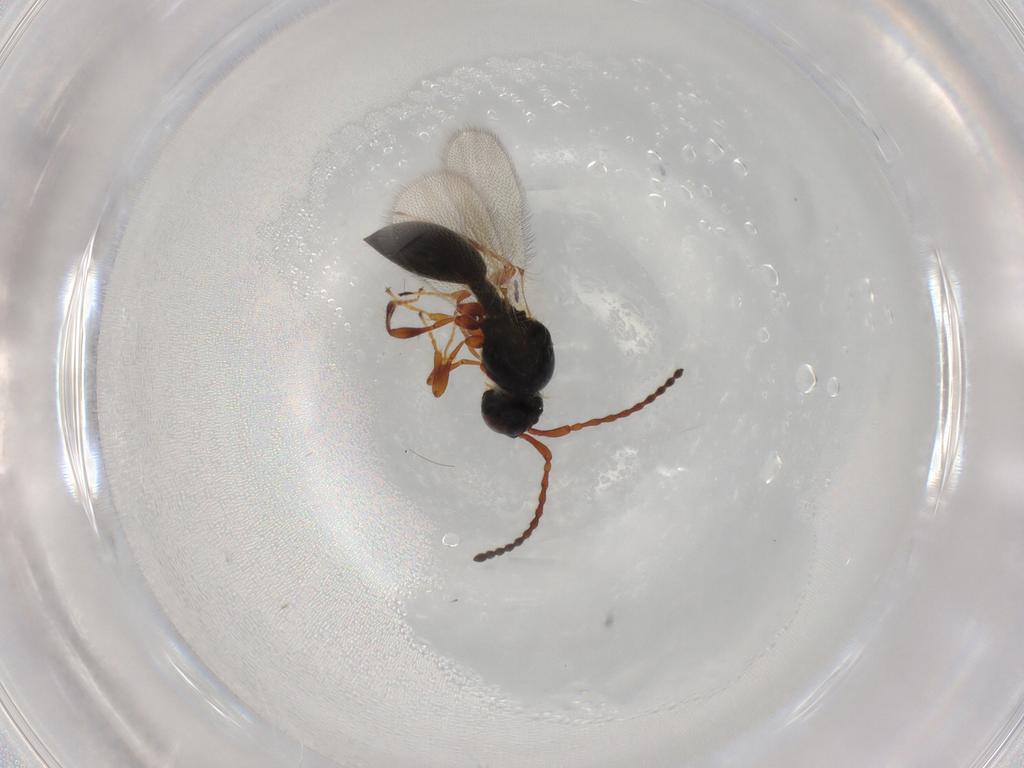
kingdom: Animalia
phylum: Arthropoda
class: Insecta
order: Hymenoptera
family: Diapriidae
